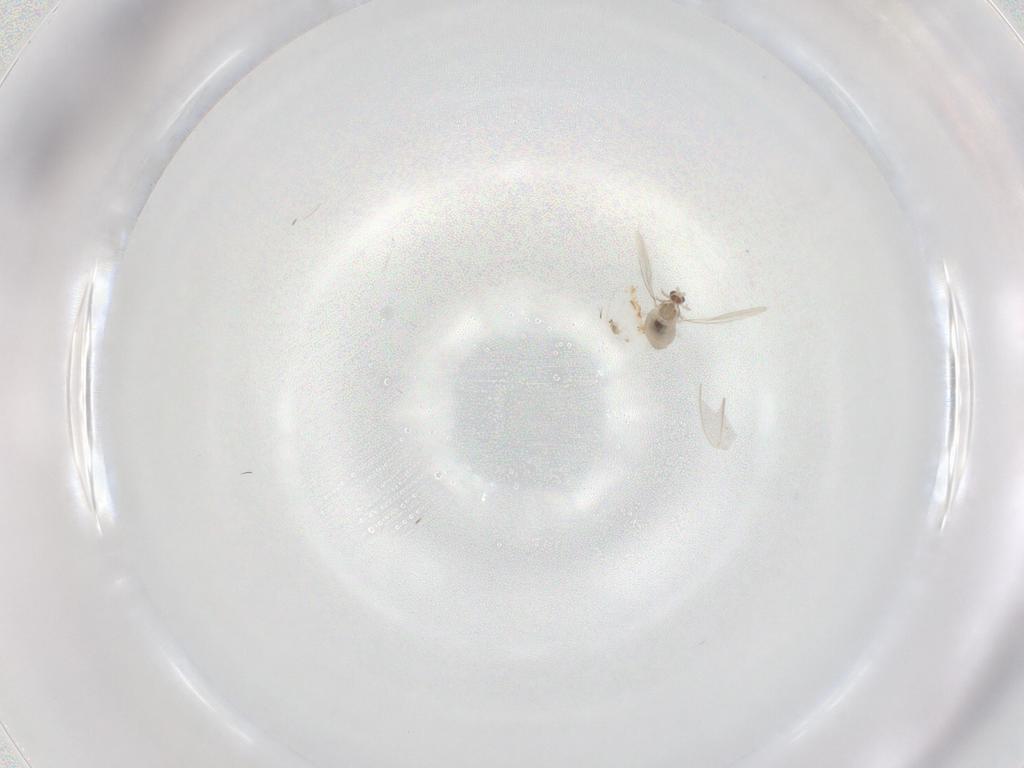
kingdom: Animalia
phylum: Arthropoda
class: Insecta
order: Diptera
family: Cecidomyiidae
